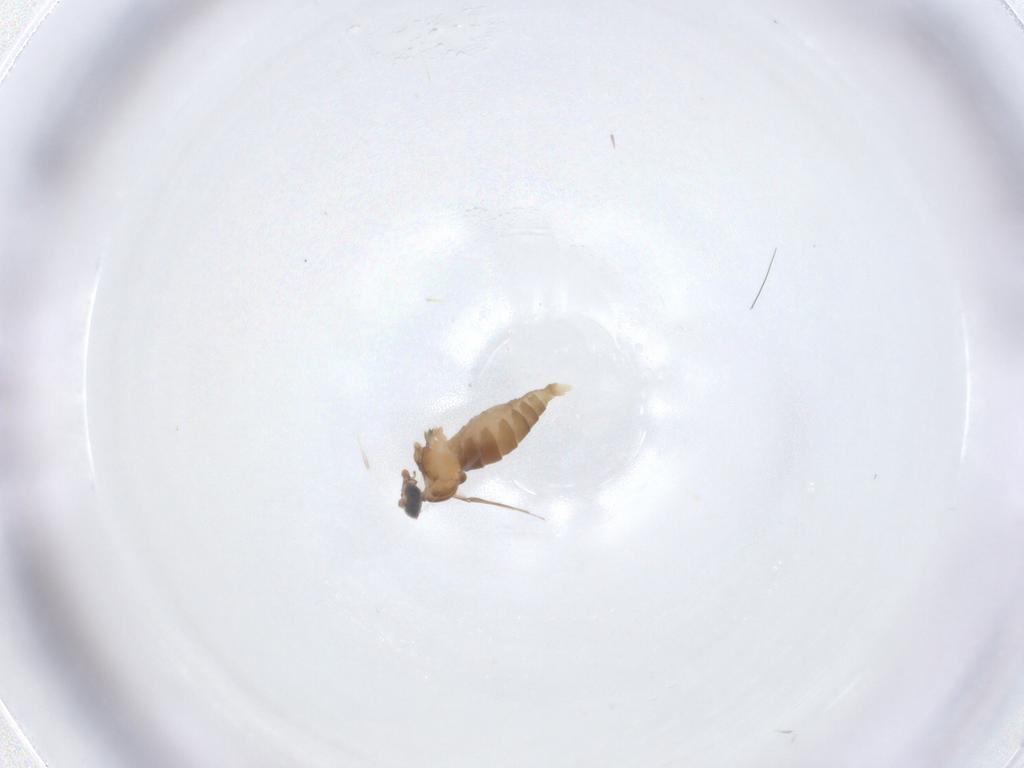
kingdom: Animalia
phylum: Arthropoda
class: Insecta
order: Diptera
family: Cecidomyiidae
